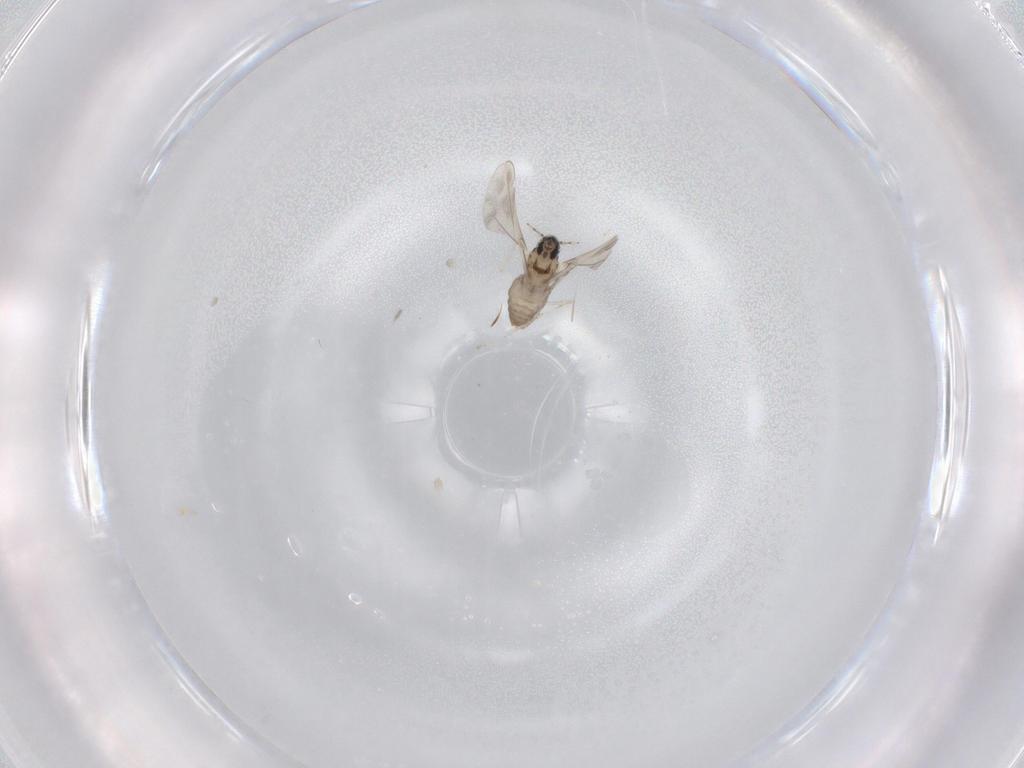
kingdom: Animalia
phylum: Arthropoda
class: Insecta
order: Diptera
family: Cecidomyiidae
